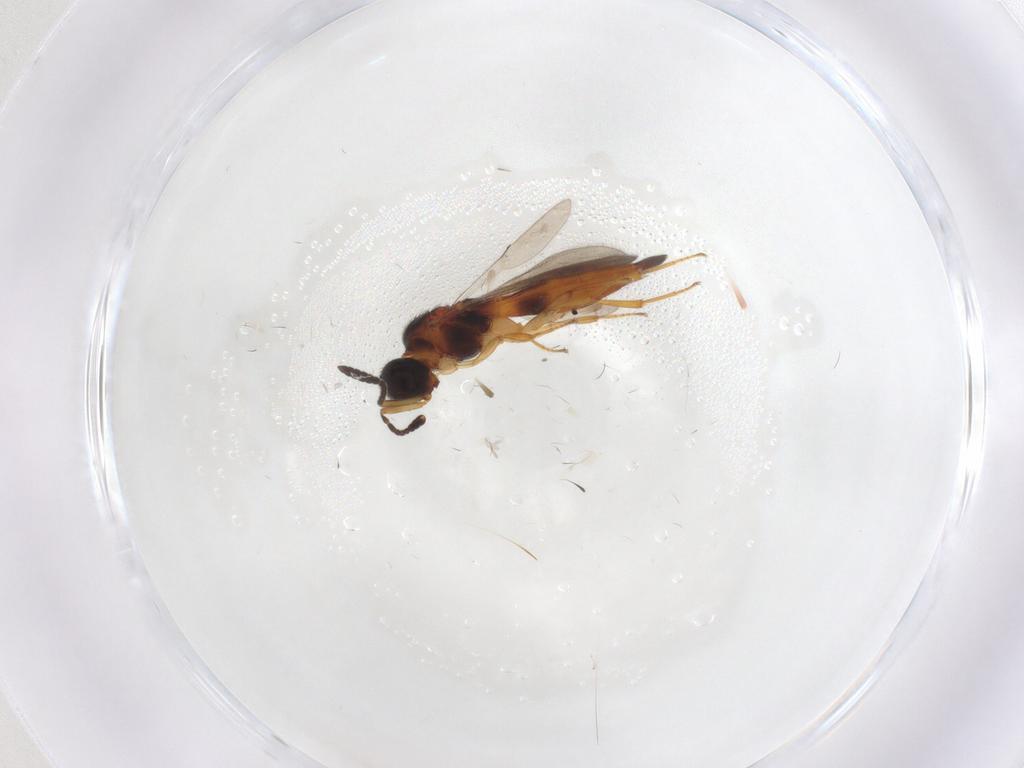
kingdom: Animalia
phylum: Arthropoda
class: Insecta
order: Hymenoptera
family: Scelionidae
